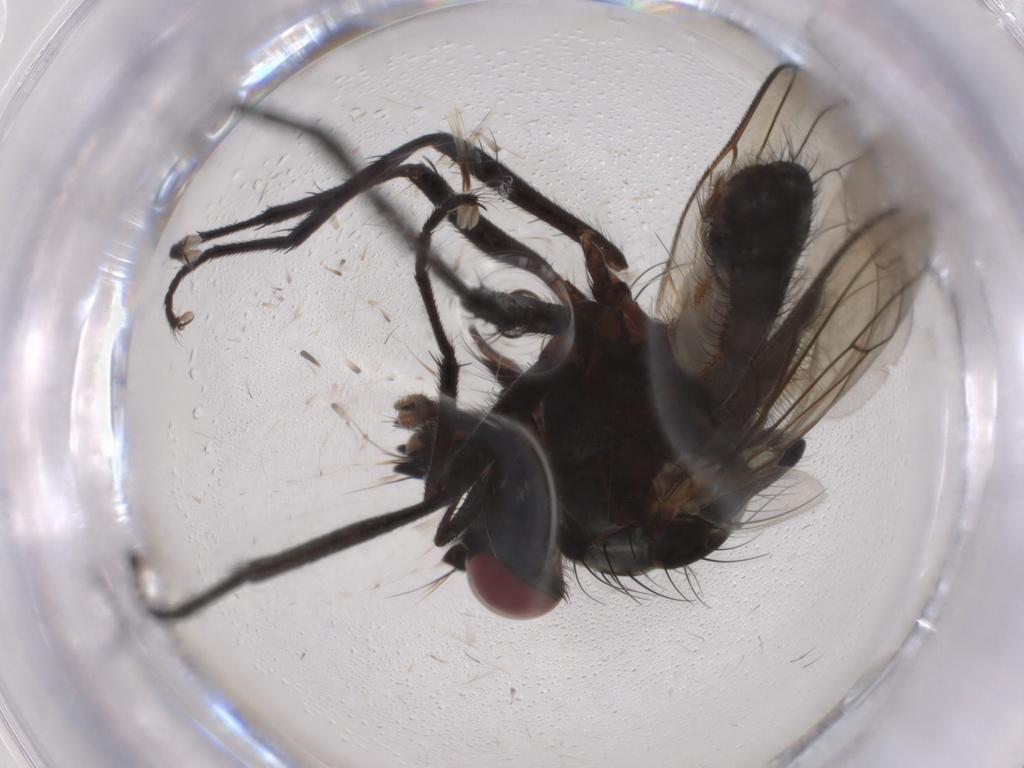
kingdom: Animalia
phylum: Arthropoda
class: Insecta
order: Diptera
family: Anthomyiidae
